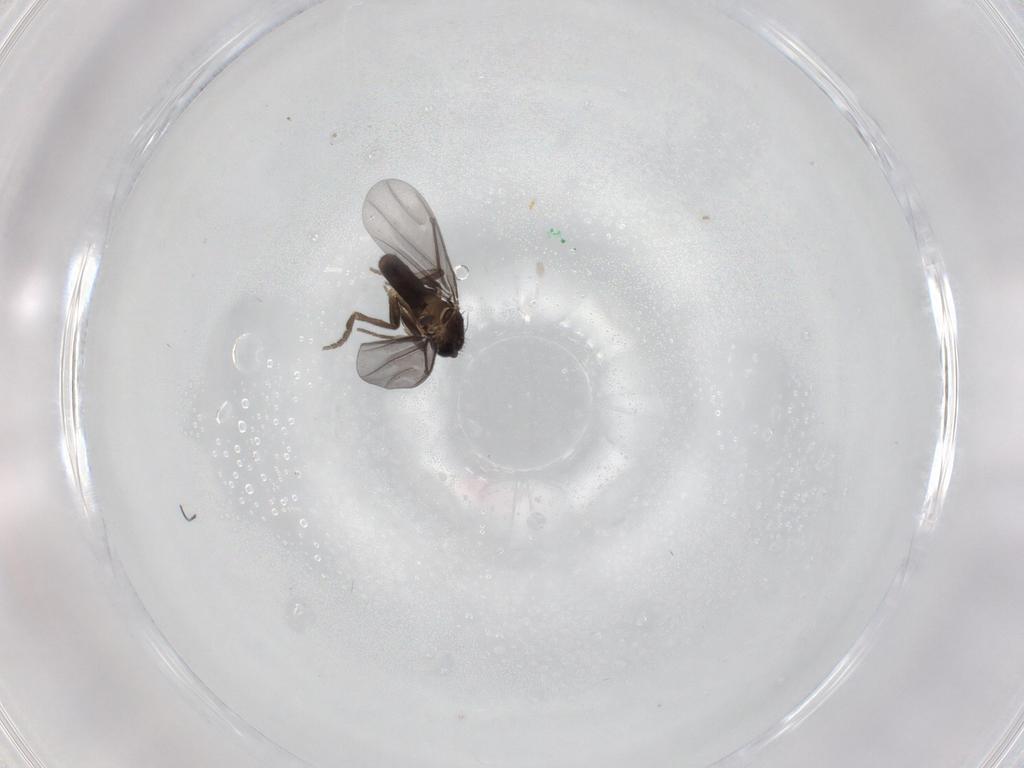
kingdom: Animalia
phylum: Arthropoda
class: Insecta
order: Diptera
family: Phoridae
